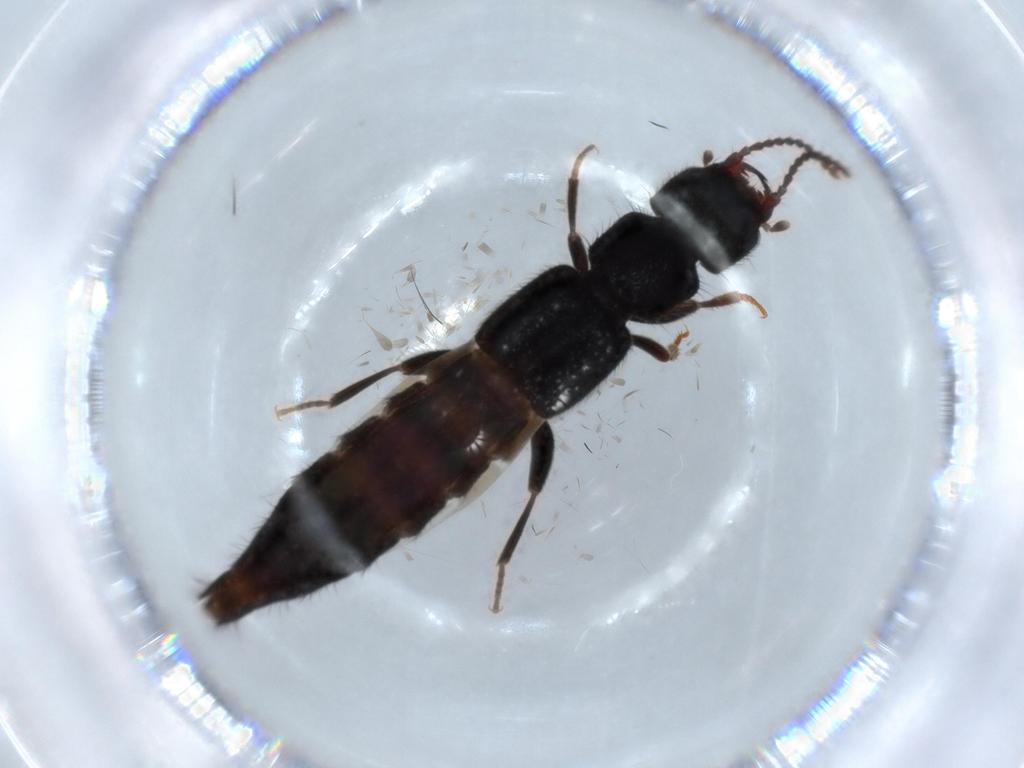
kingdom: Animalia
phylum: Arthropoda
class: Insecta
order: Coleoptera
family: Staphylinidae
